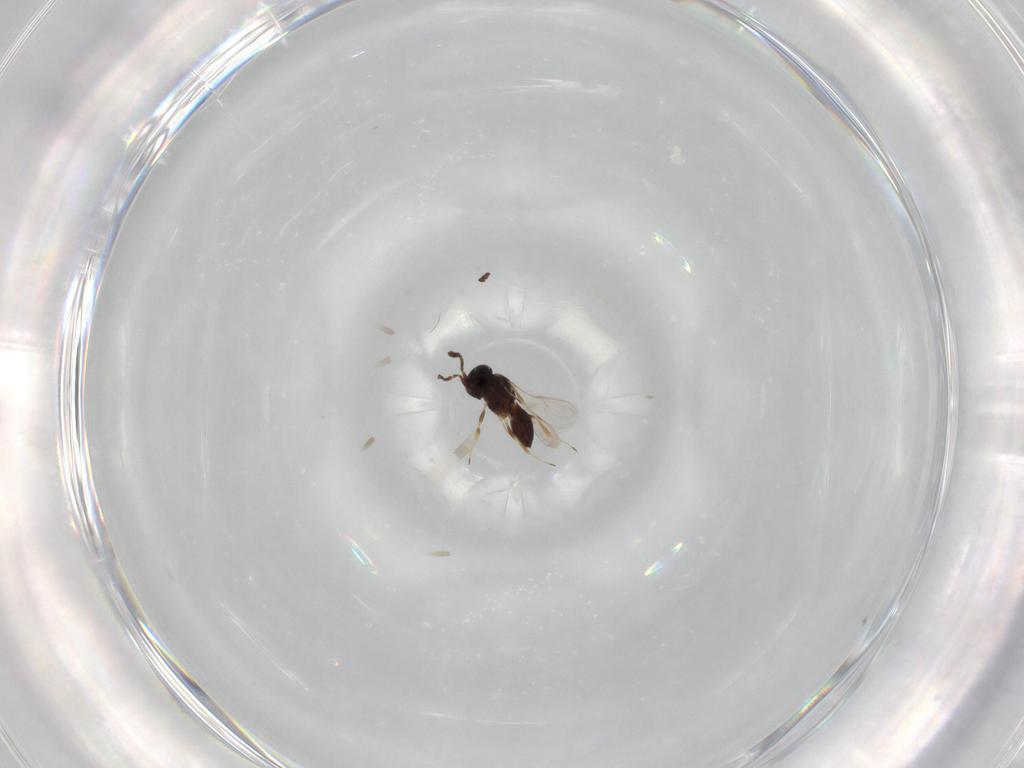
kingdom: Animalia
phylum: Arthropoda
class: Insecta
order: Hymenoptera
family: Scelionidae
